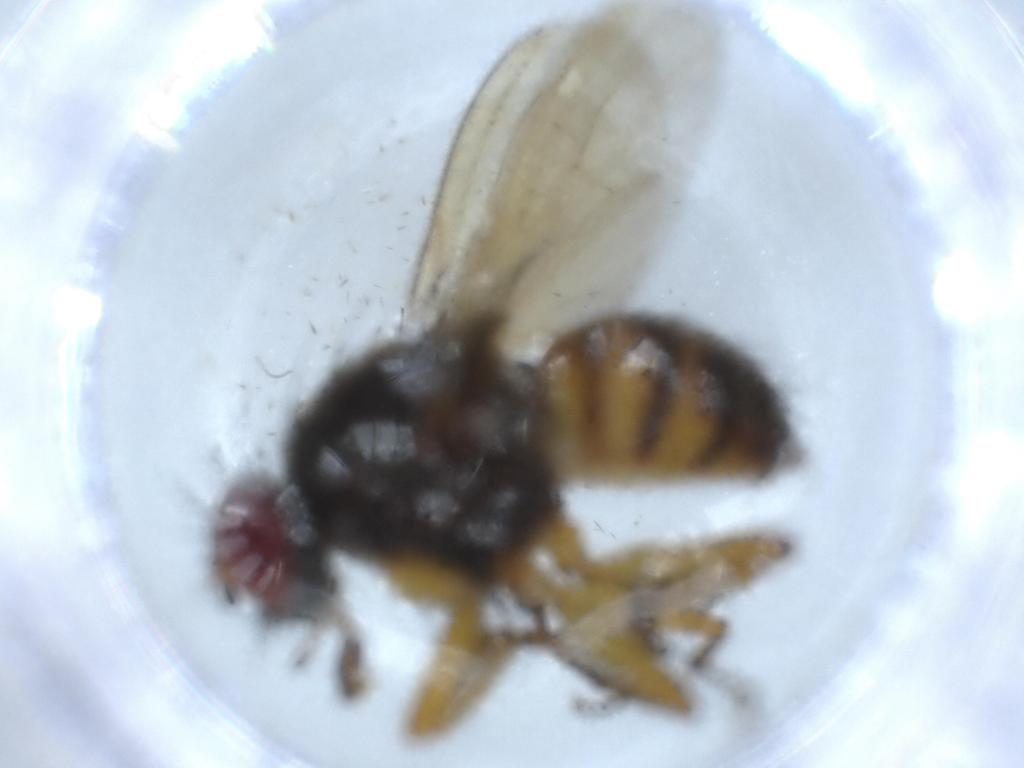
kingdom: Animalia
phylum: Arthropoda
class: Insecta
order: Diptera
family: Muscidae
